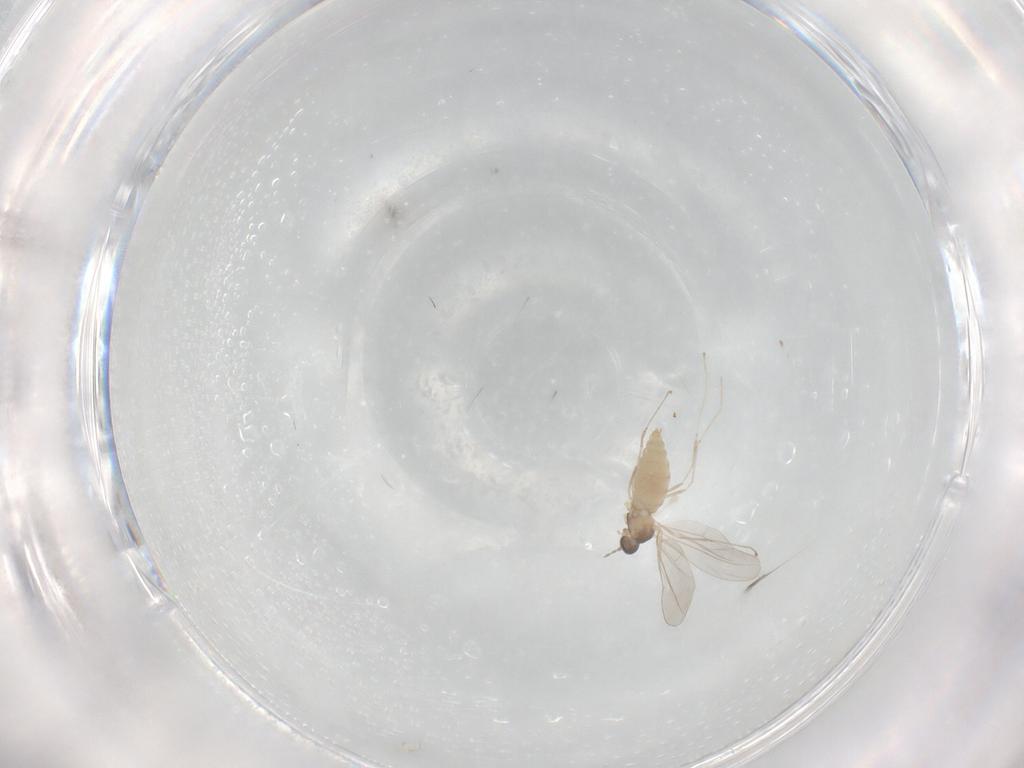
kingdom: Animalia
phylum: Arthropoda
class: Insecta
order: Diptera
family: Cecidomyiidae
